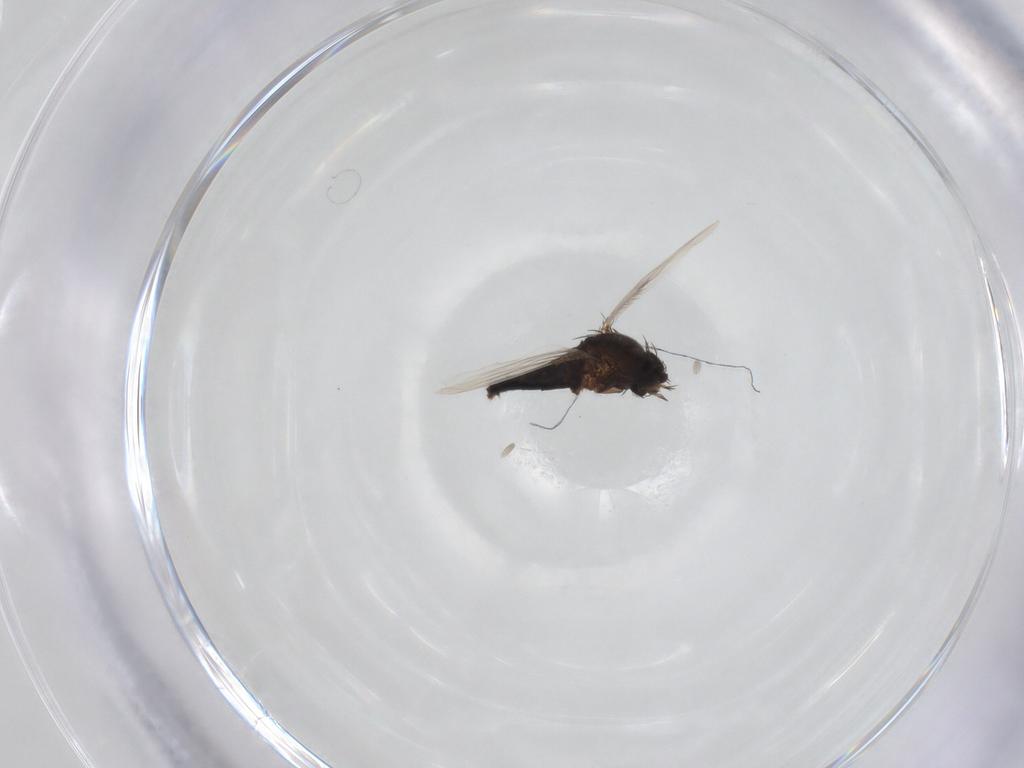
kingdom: Animalia
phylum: Arthropoda
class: Insecta
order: Diptera
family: Phoridae
